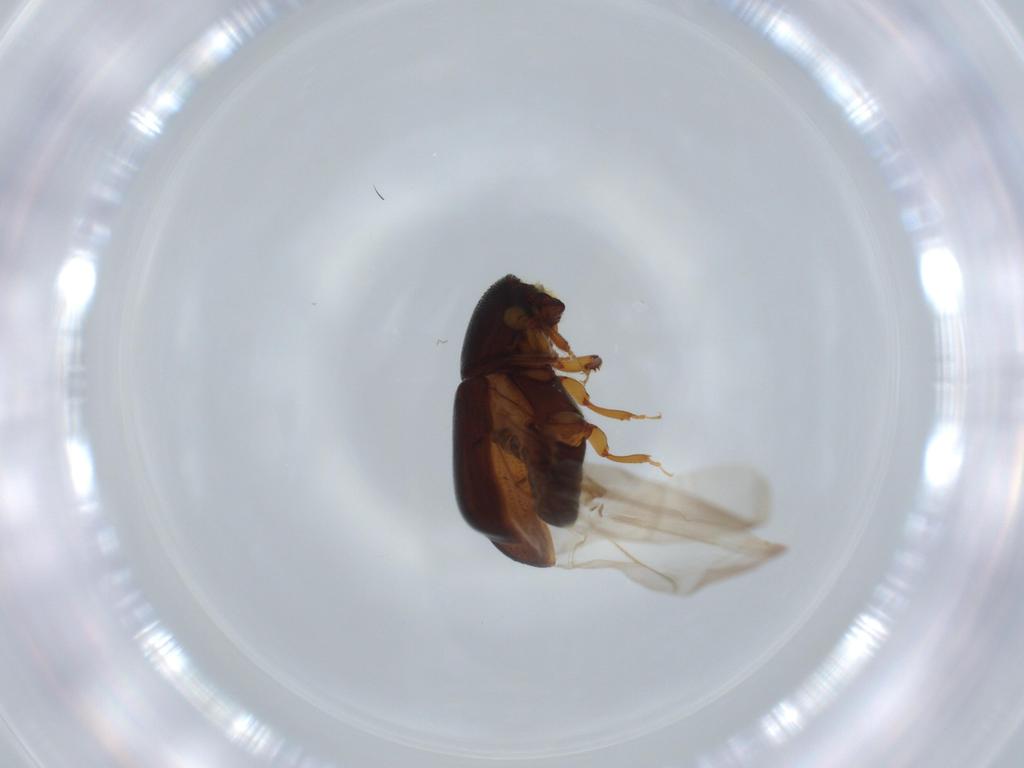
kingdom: Animalia
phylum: Arthropoda
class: Insecta
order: Coleoptera
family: Curculionidae
